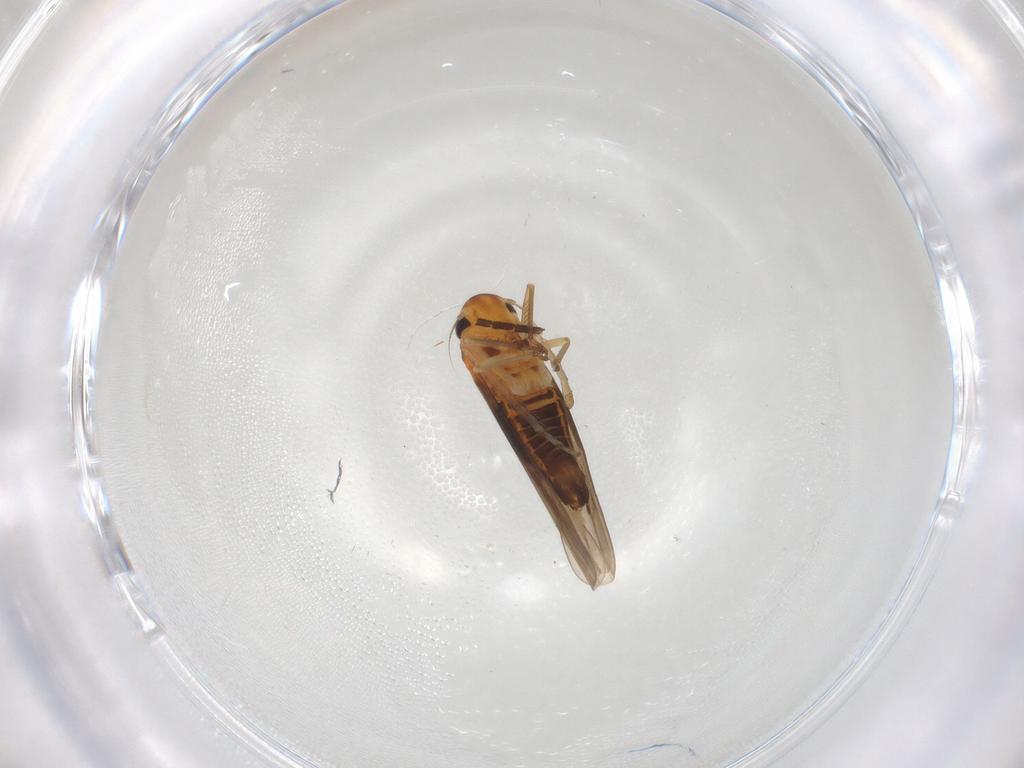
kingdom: Animalia
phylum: Arthropoda
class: Insecta
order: Hemiptera
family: Cicadellidae
